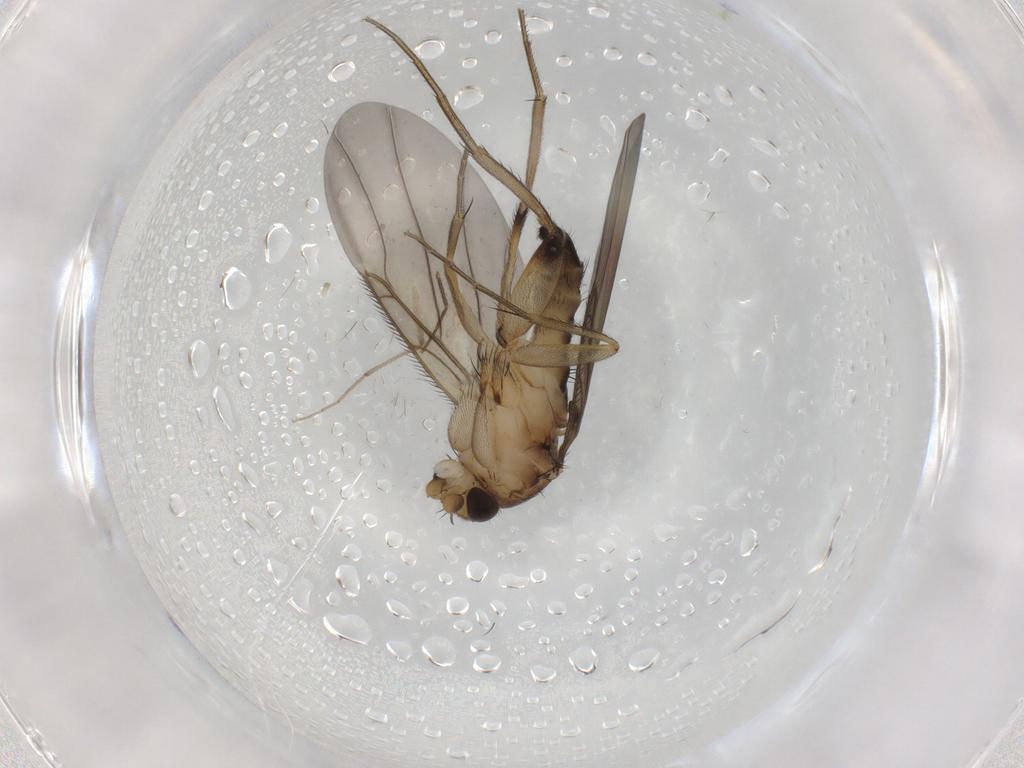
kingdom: Animalia
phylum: Arthropoda
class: Insecta
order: Diptera
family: Phoridae
